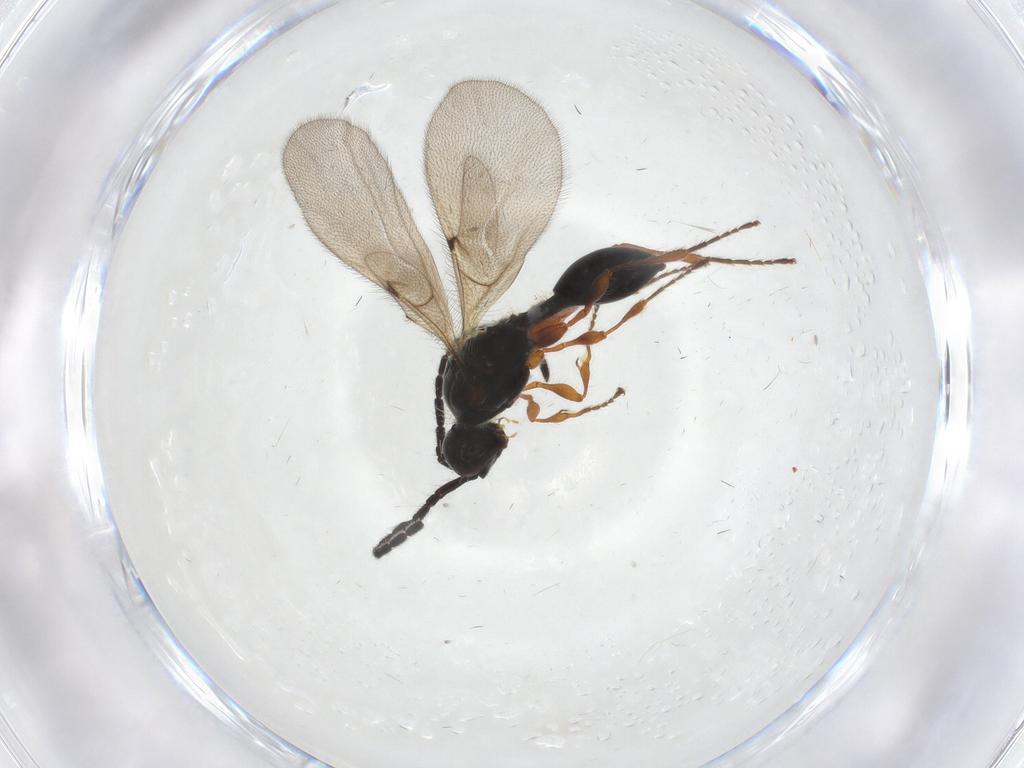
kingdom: Animalia
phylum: Arthropoda
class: Insecta
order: Hymenoptera
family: Diapriidae
